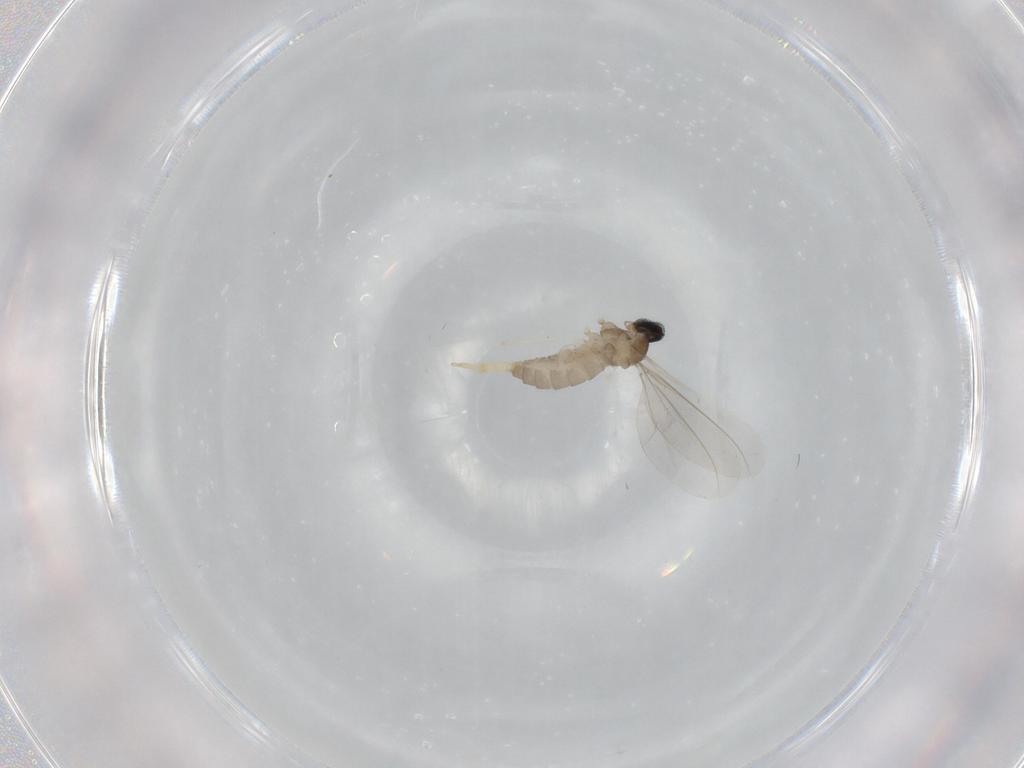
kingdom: Animalia
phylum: Arthropoda
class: Insecta
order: Diptera
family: Cecidomyiidae
